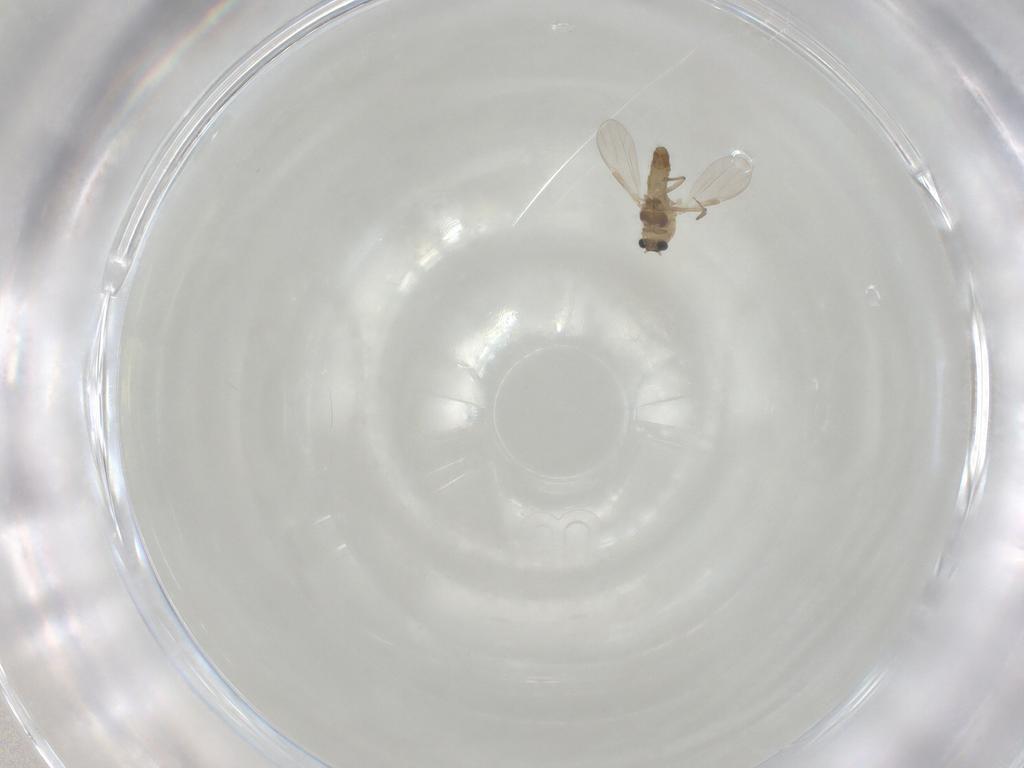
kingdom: Animalia
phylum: Arthropoda
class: Insecta
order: Diptera
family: Chironomidae
